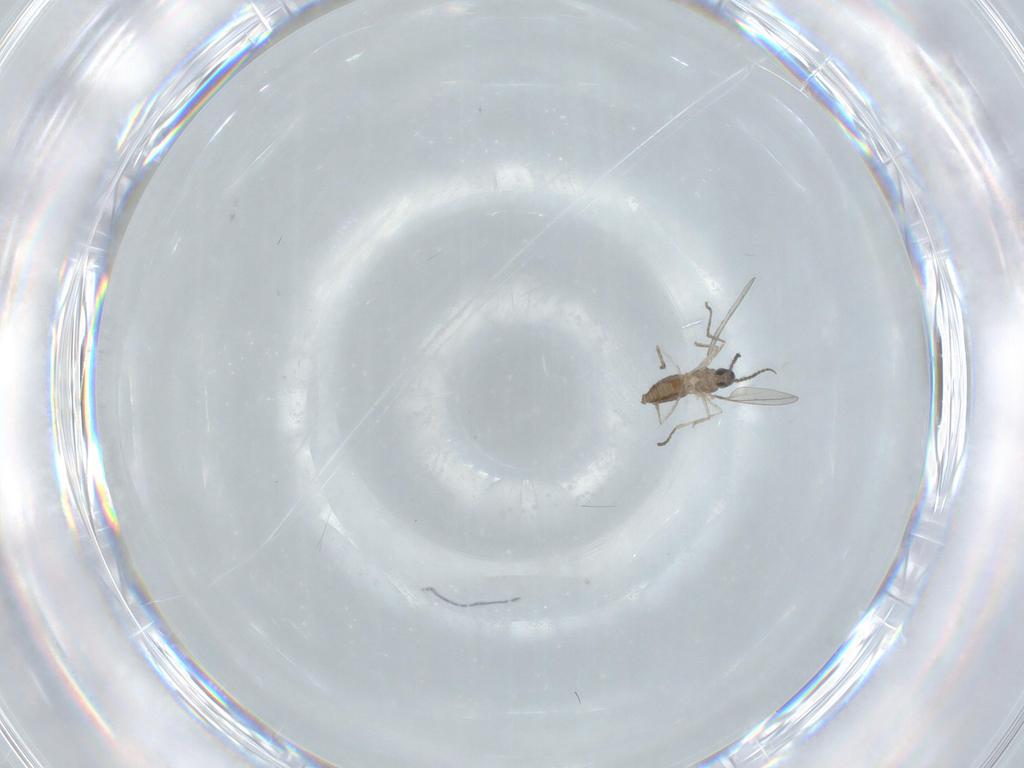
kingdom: Animalia
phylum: Arthropoda
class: Insecta
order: Diptera
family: Cecidomyiidae
